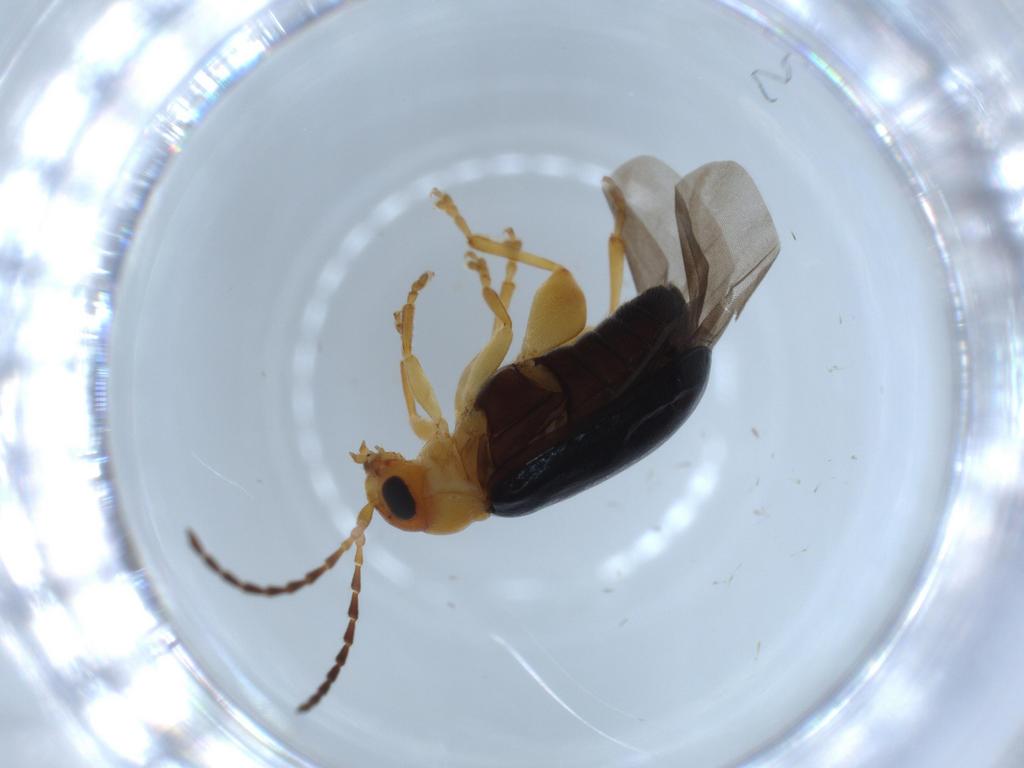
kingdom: Animalia
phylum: Arthropoda
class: Insecta
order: Coleoptera
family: Chrysomelidae
